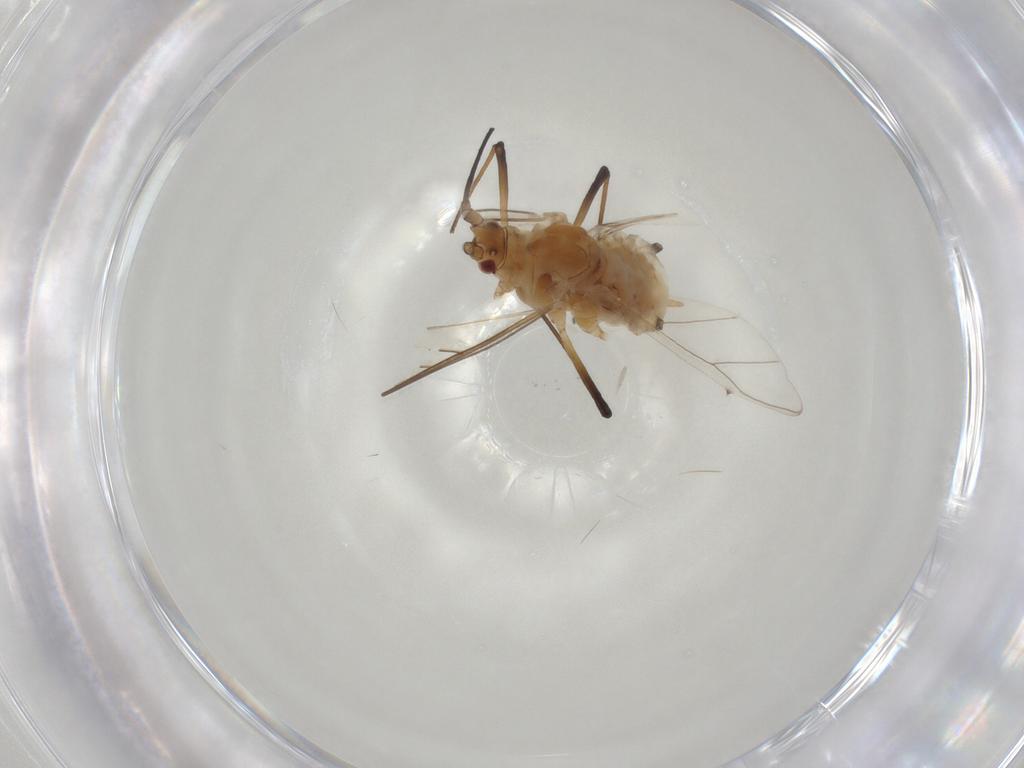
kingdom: Animalia
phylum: Arthropoda
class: Insecta
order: Hemiptera
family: Aphididae
